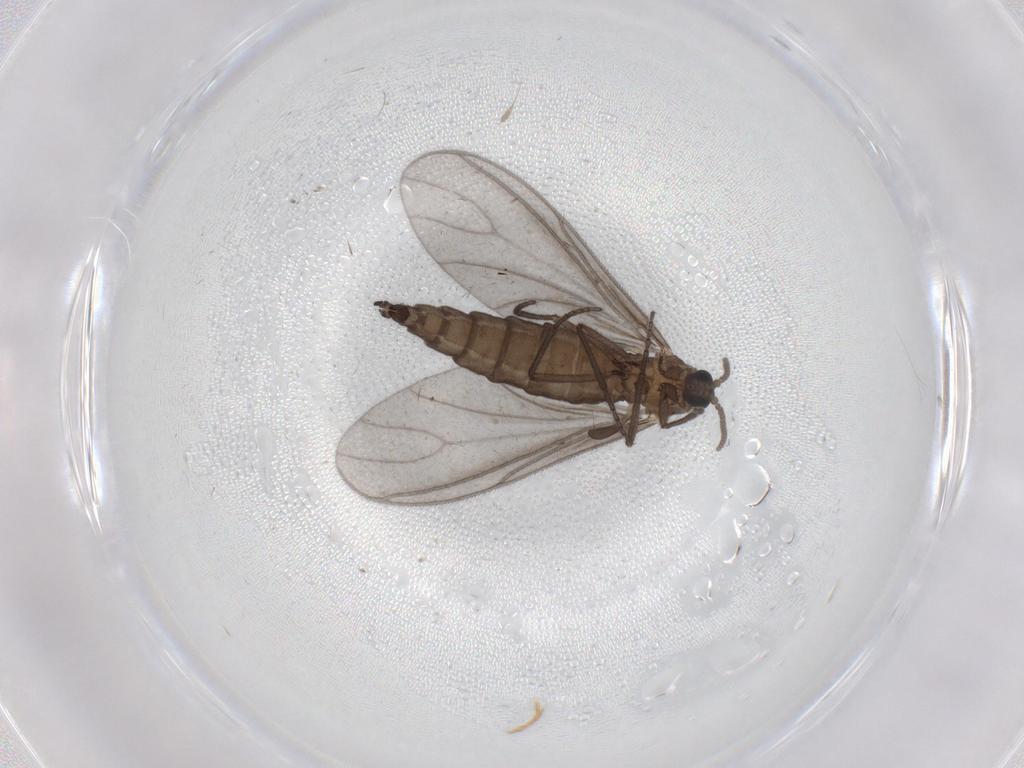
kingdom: Animalia
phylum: Arthropoda
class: Insecta
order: Diptera
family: Sciaridae
